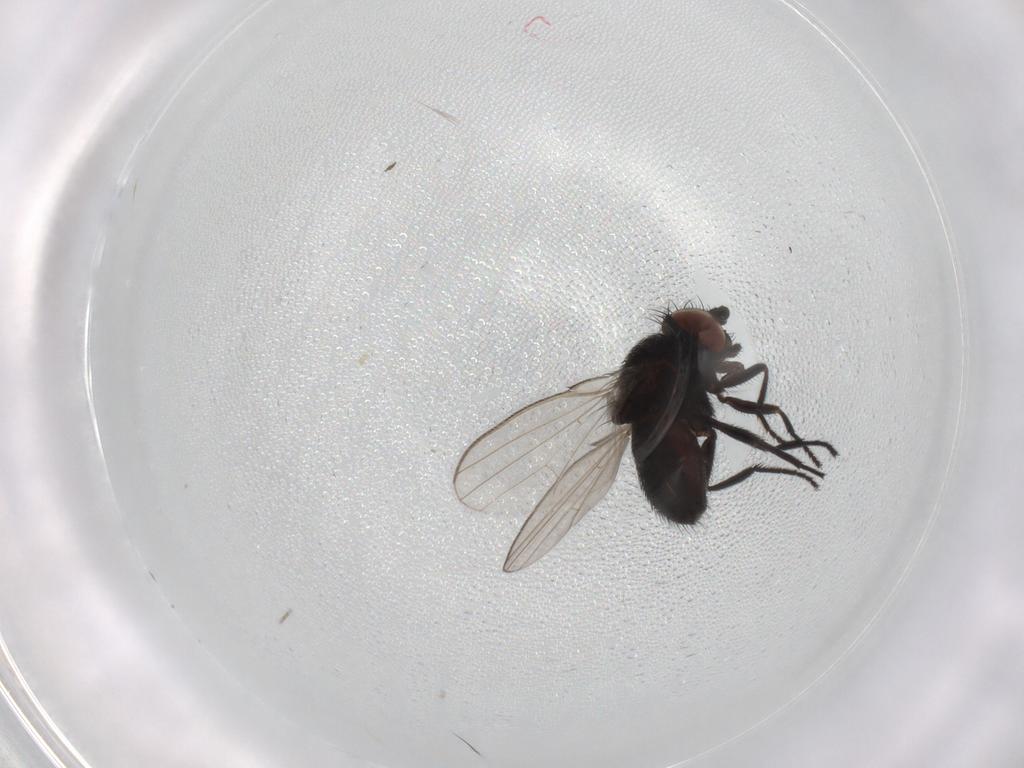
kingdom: Animalia
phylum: Arthropoda
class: Insecta
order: Diptera
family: Milichiidae
